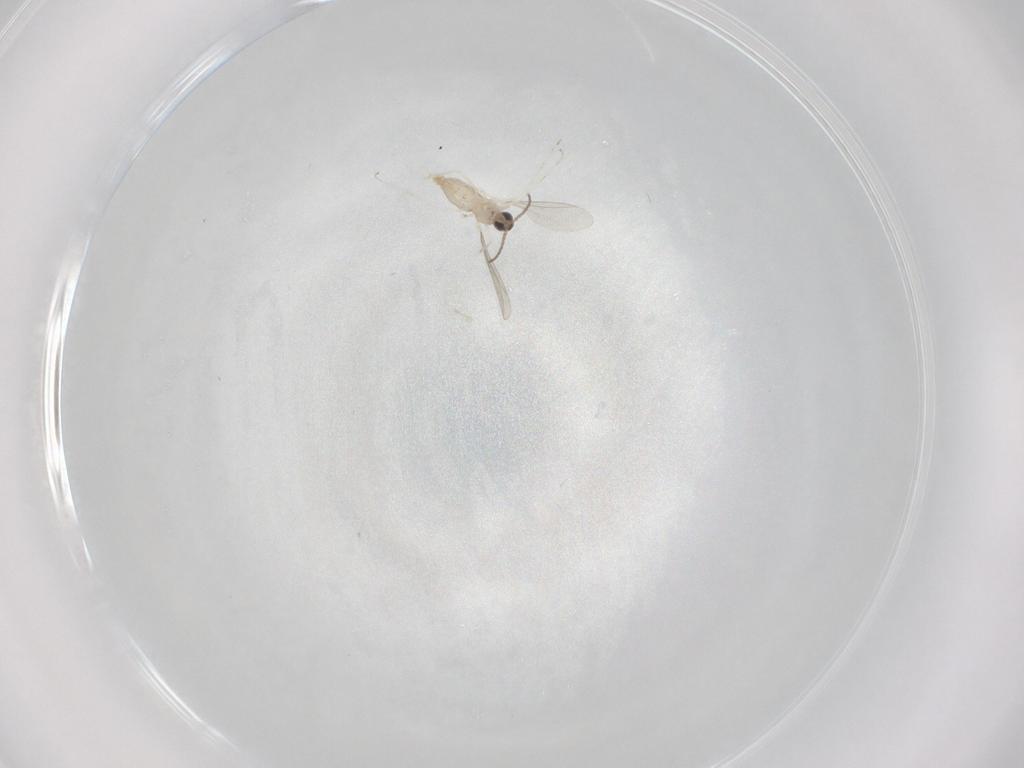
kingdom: Animalia
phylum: Arthropoda
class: Insecta
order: Diptera
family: Cecidomyiidae
